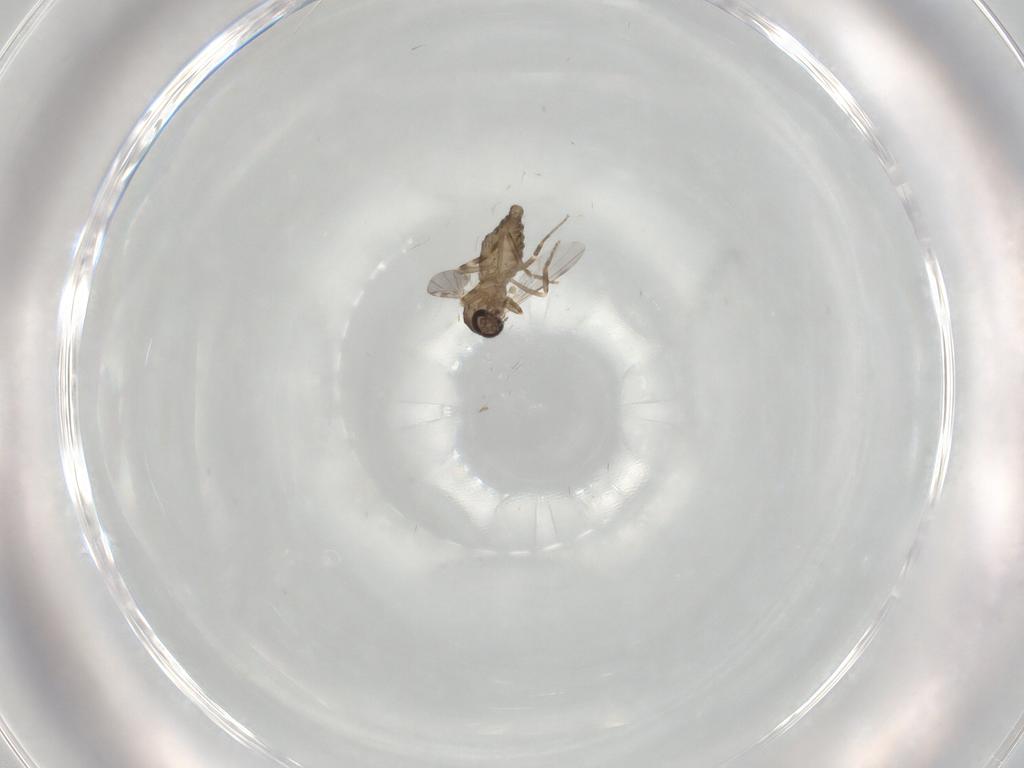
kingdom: Animalia
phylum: Arthropoda
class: Insecta
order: Diptera
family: Ceratopogonidae
